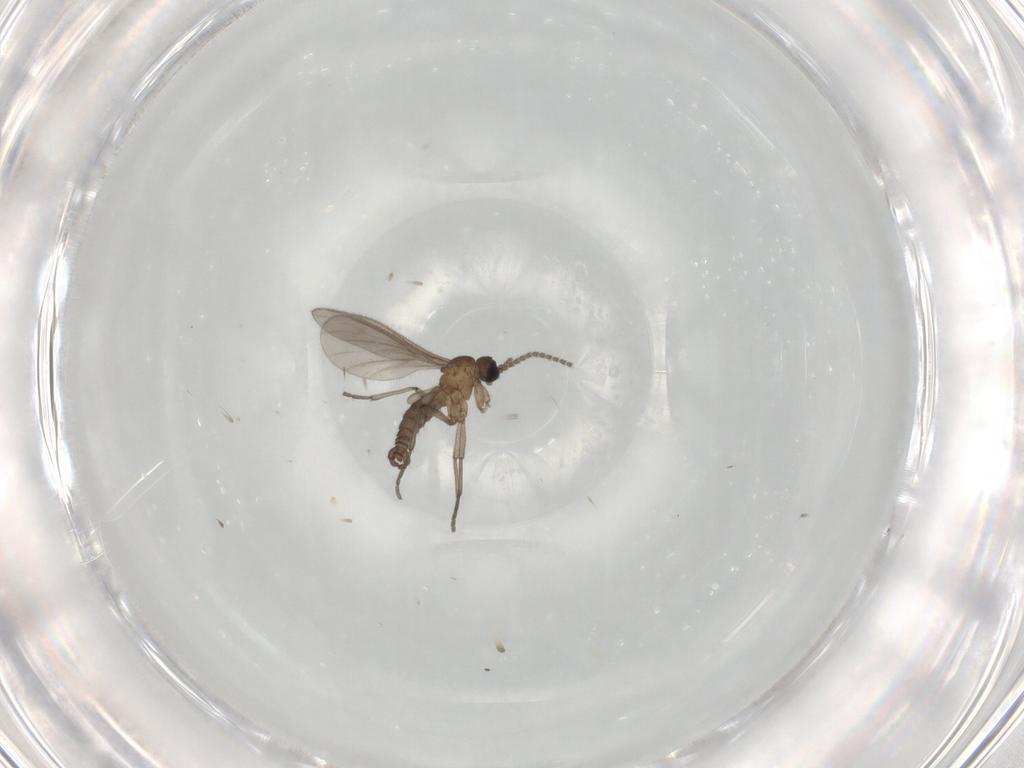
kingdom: Animalia
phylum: Arthropoda
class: Insecta
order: Diptera
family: Sciaridae
